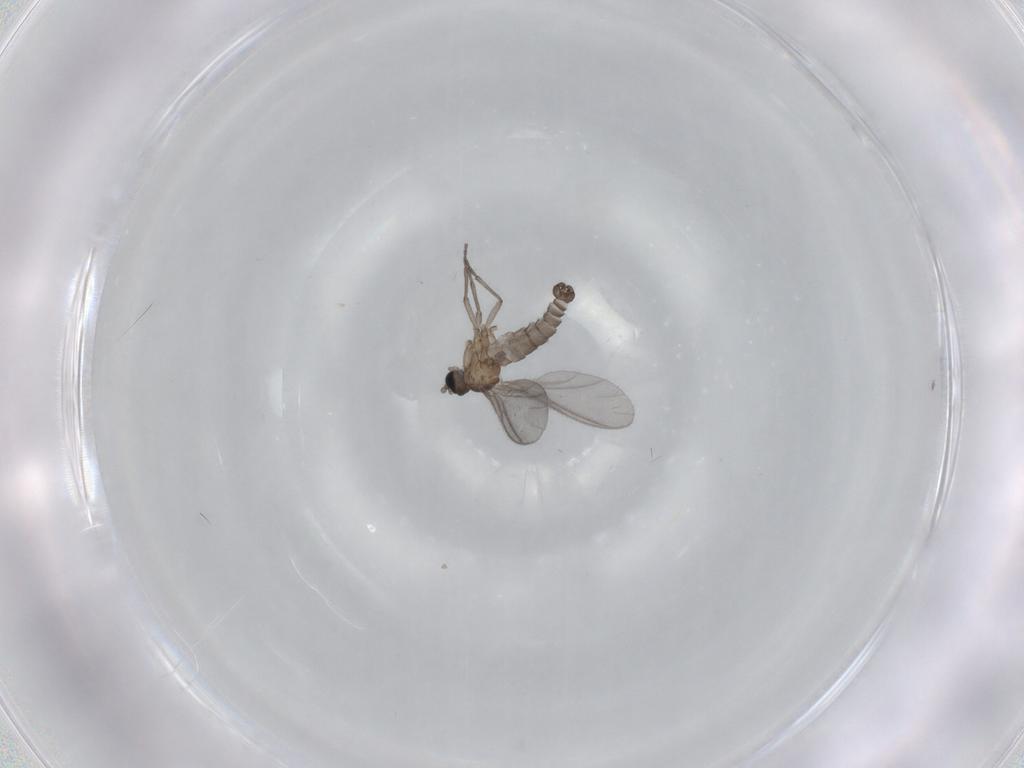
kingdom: Animalia
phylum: Arthropoda
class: Insecta
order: Diptera
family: Sciaridae
